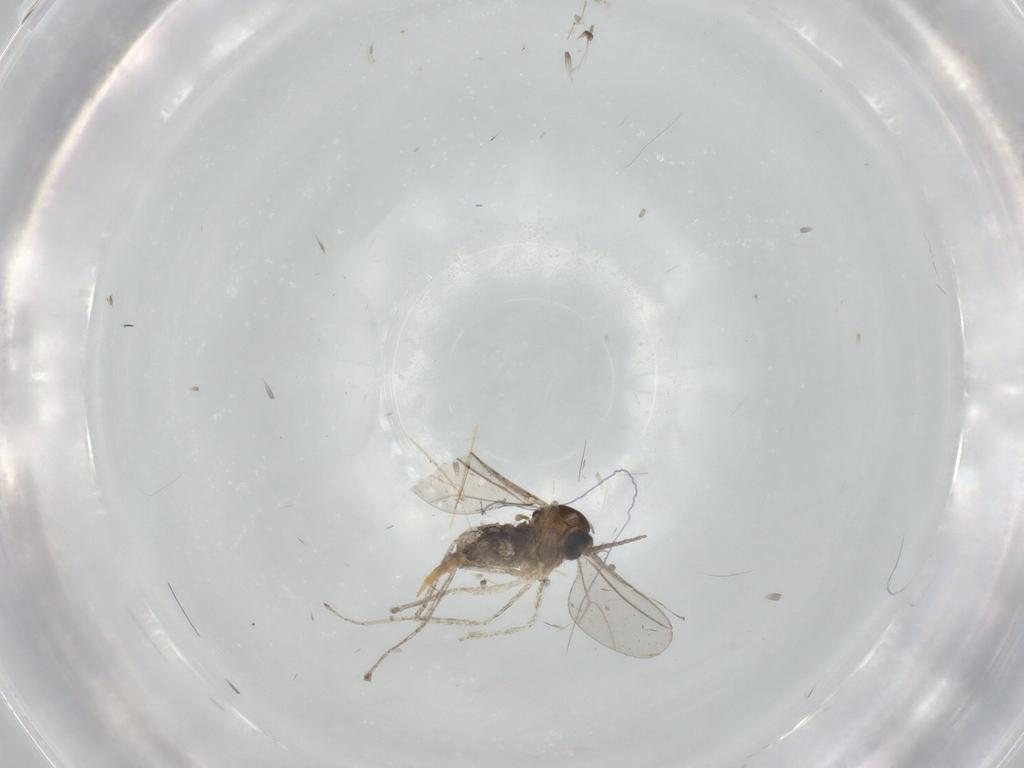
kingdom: Animalia
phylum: Arthropoda
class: Insecta
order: Diptera
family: Cecidomyiidae
